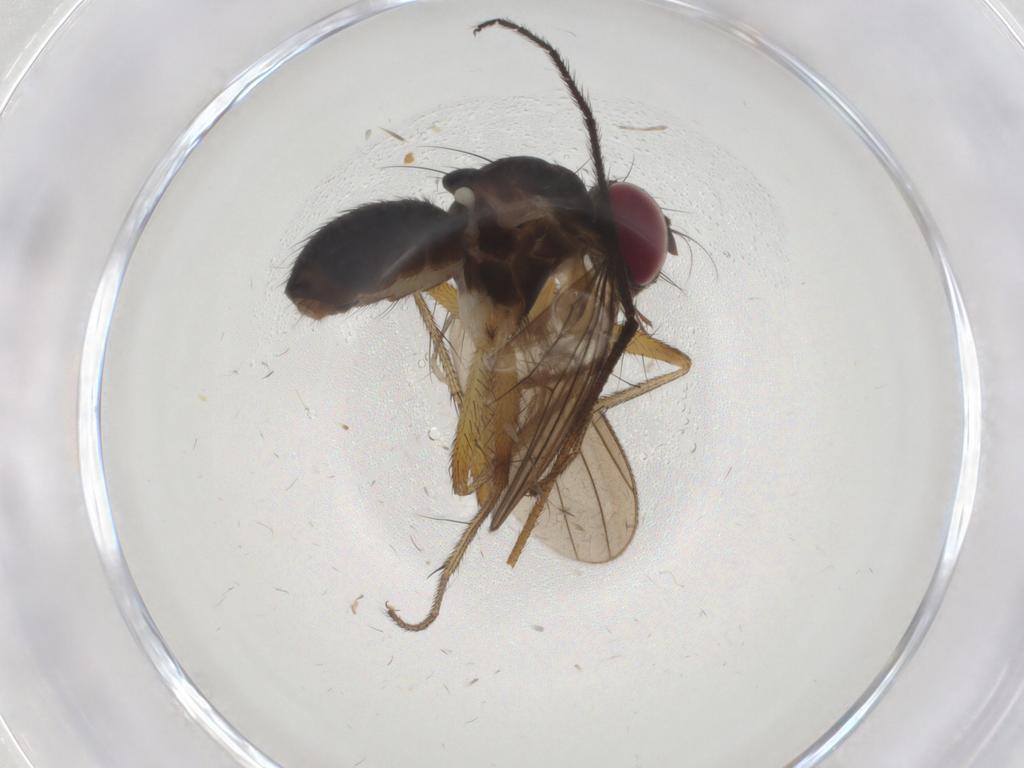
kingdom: Animalia
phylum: Arthropoda
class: Insecta
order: Diptera
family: Limoniidae
